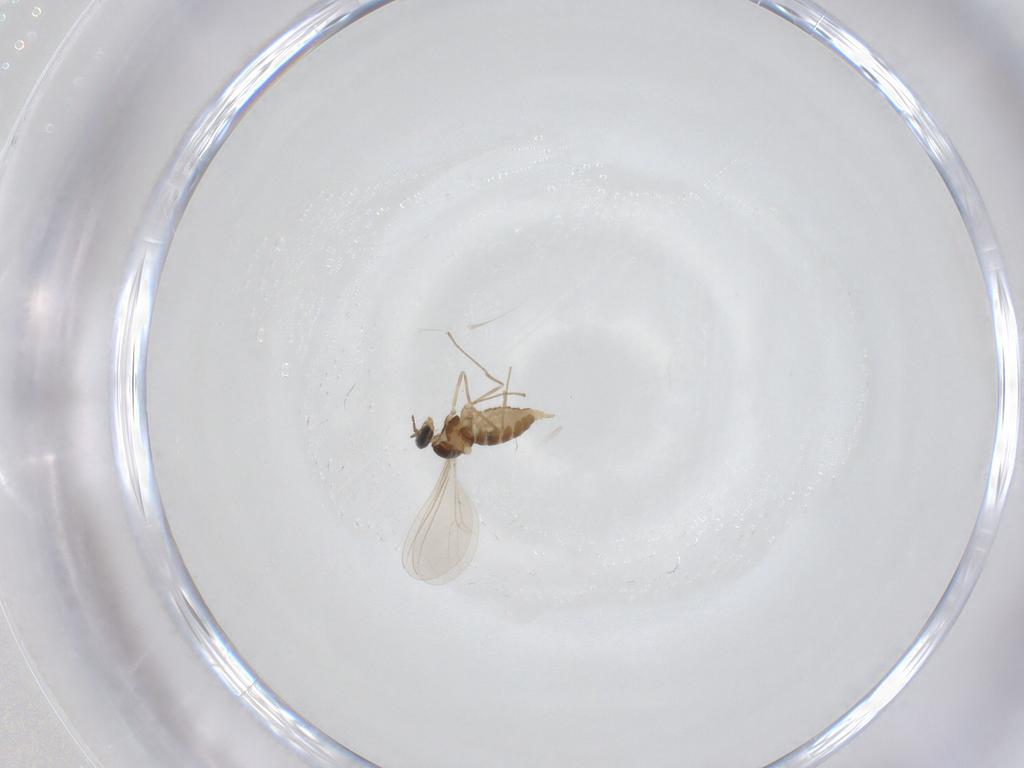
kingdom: Animalia
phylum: Arthropoda
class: Insecta
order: Diptera
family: Cecidomyiidae
